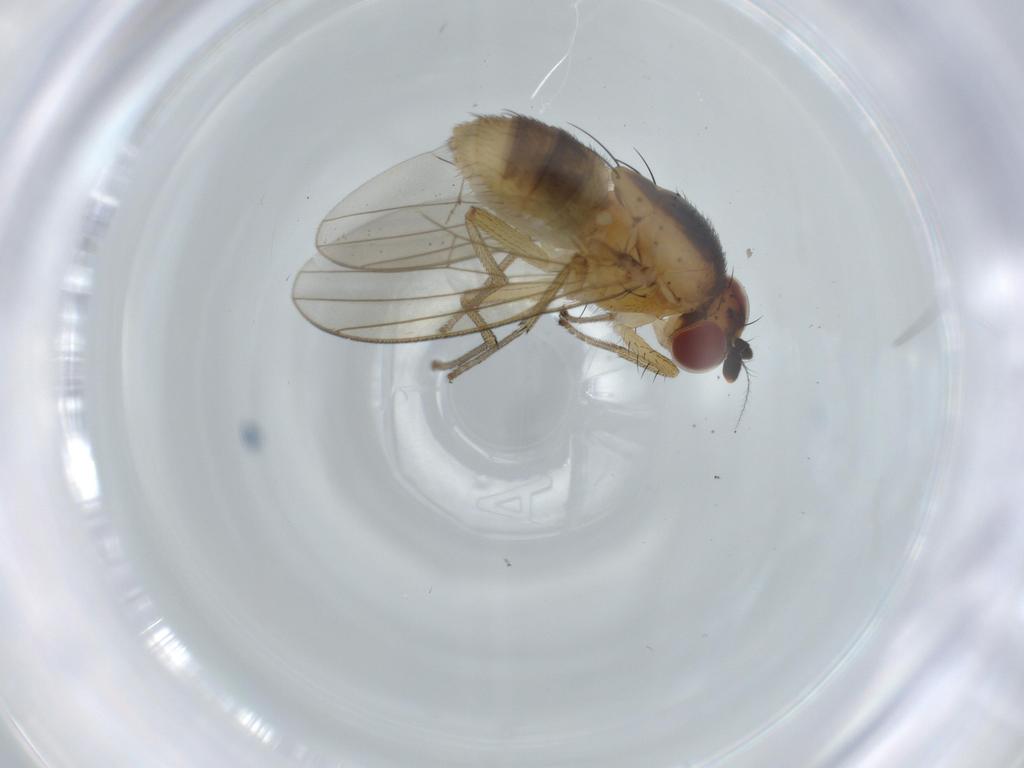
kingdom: Animalia
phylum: Arthropoda
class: Insecta
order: Diptera
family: Lauxaniidae
